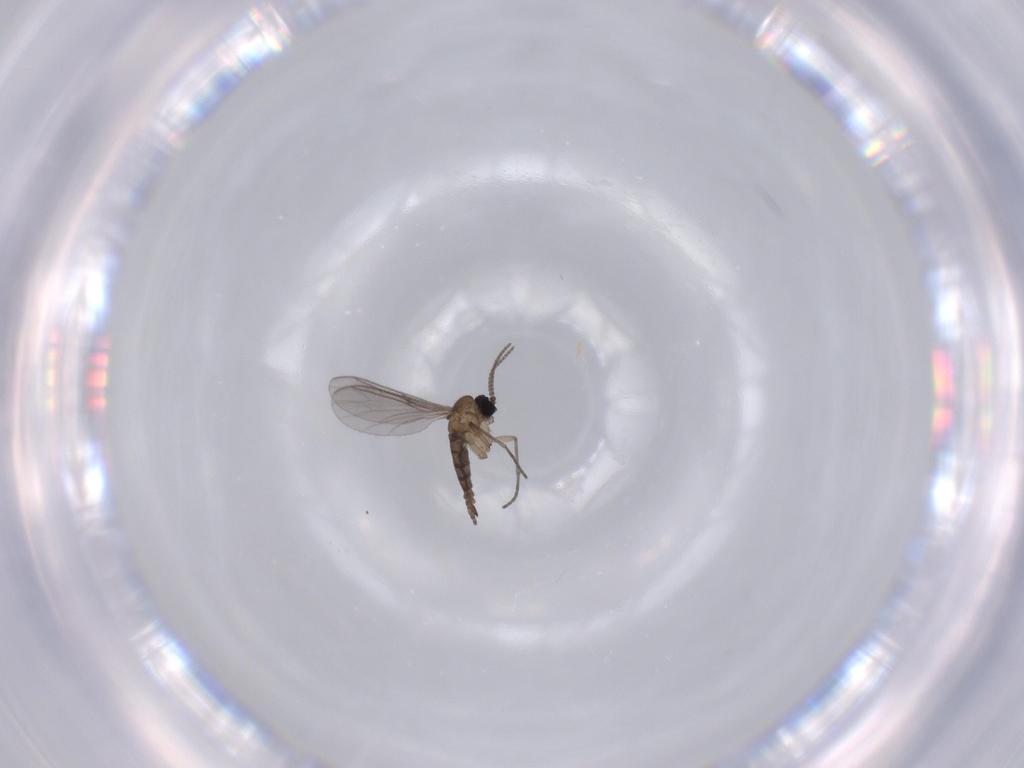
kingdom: Animalia
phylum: Arthropoda
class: Insecta
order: Diptera
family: Sciaridae
